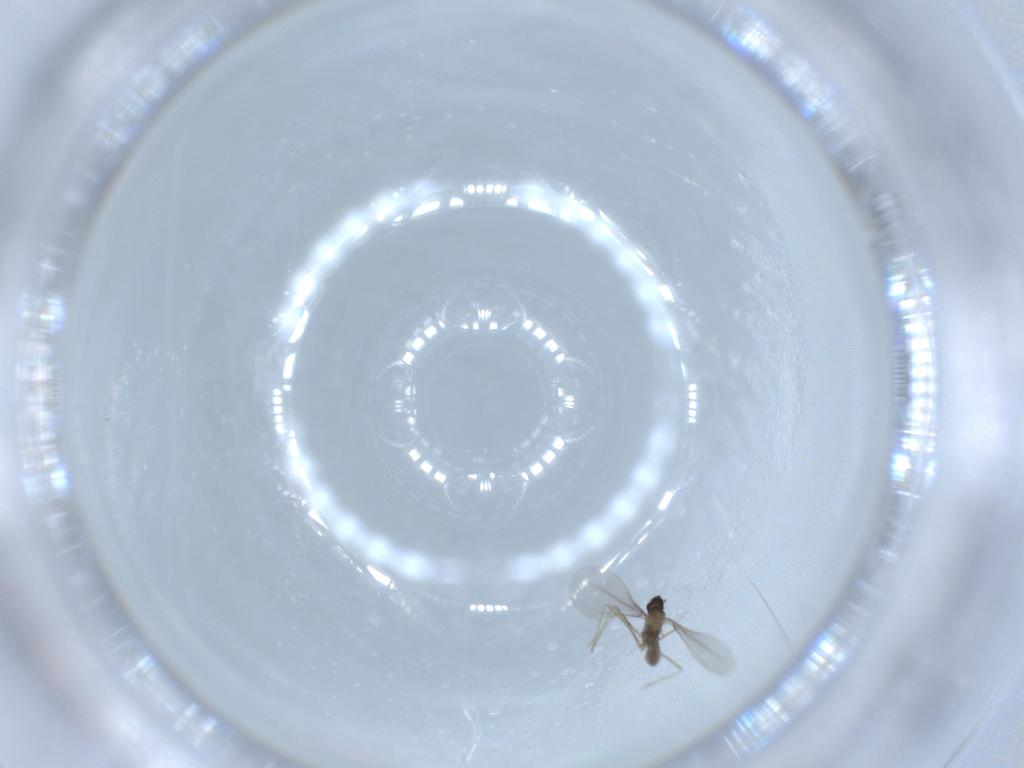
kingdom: Animalia
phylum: Arthropoda
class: Insecta
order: Diptera
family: Cecidomyiidae
